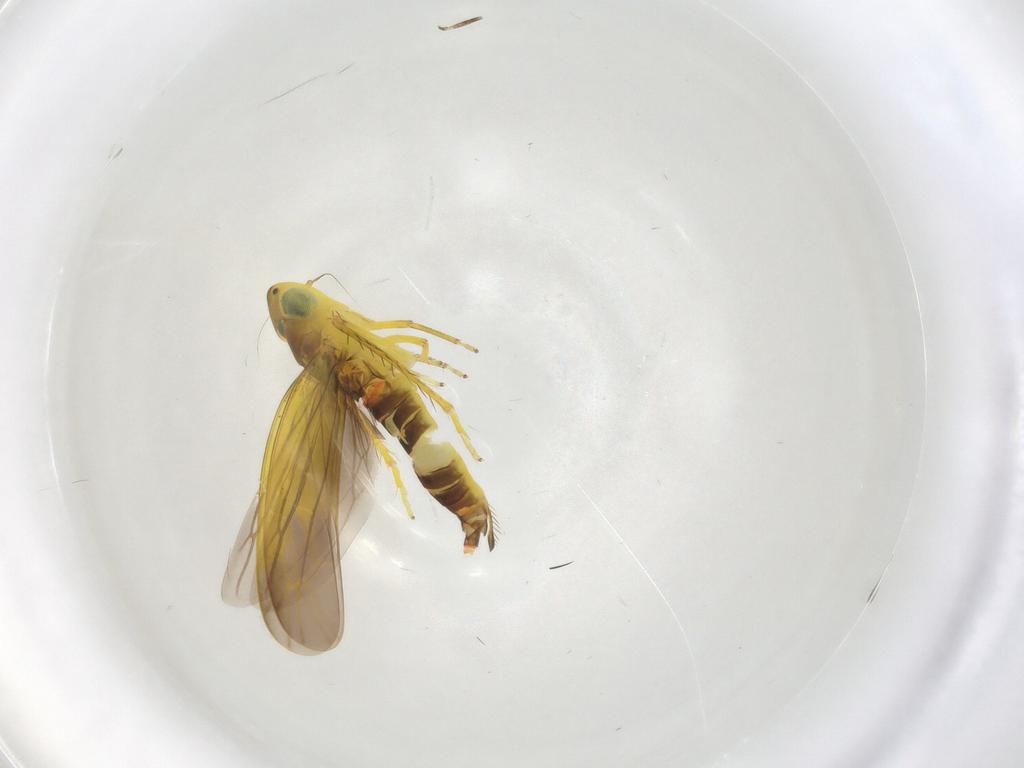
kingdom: Animalia
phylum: Arthropoda
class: Insecta
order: Hemiptera
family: Cicadellidae
